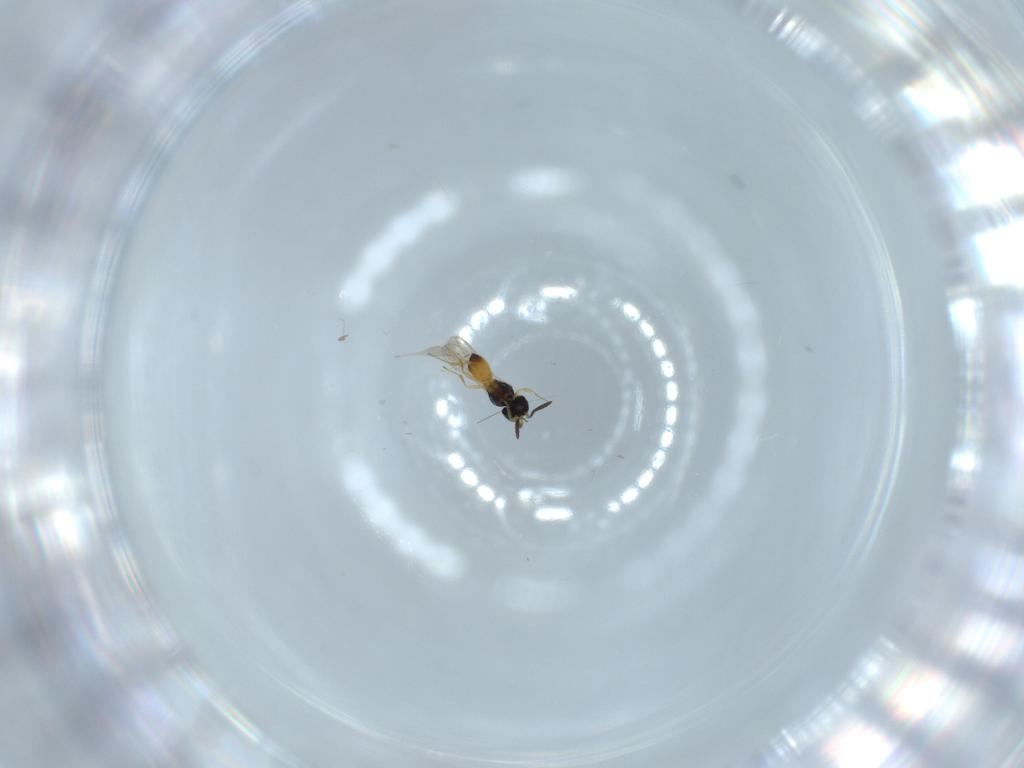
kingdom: Animalia
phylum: Arthropoda
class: Insecta
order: Hymenoptera
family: Scelionidae
